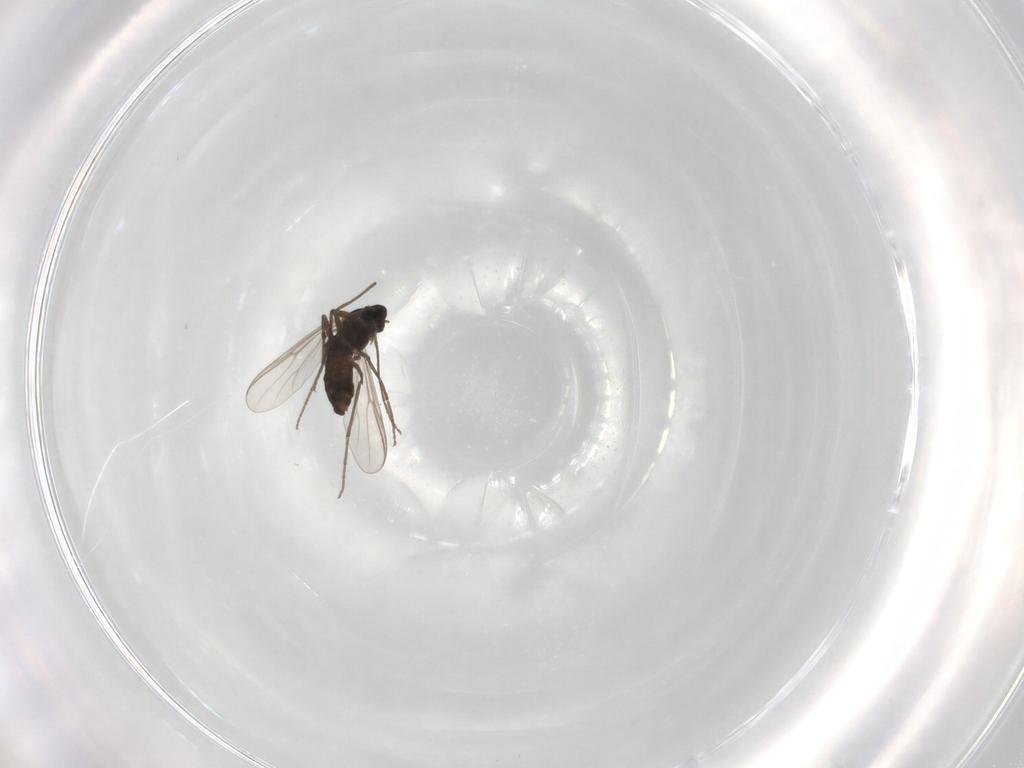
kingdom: Animalia
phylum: Arthropoda
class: Insecta
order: Diptera
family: Chironomidae
